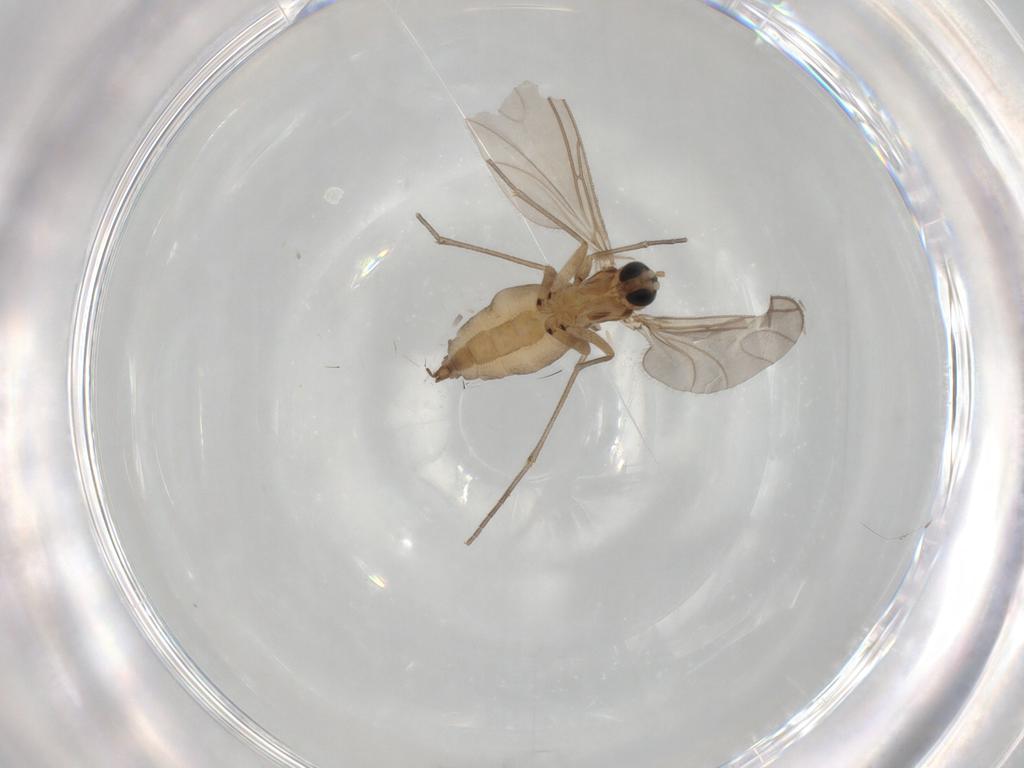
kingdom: Animalia
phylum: Arthropoda
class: Insecta
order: Diptera
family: Sciaridae
